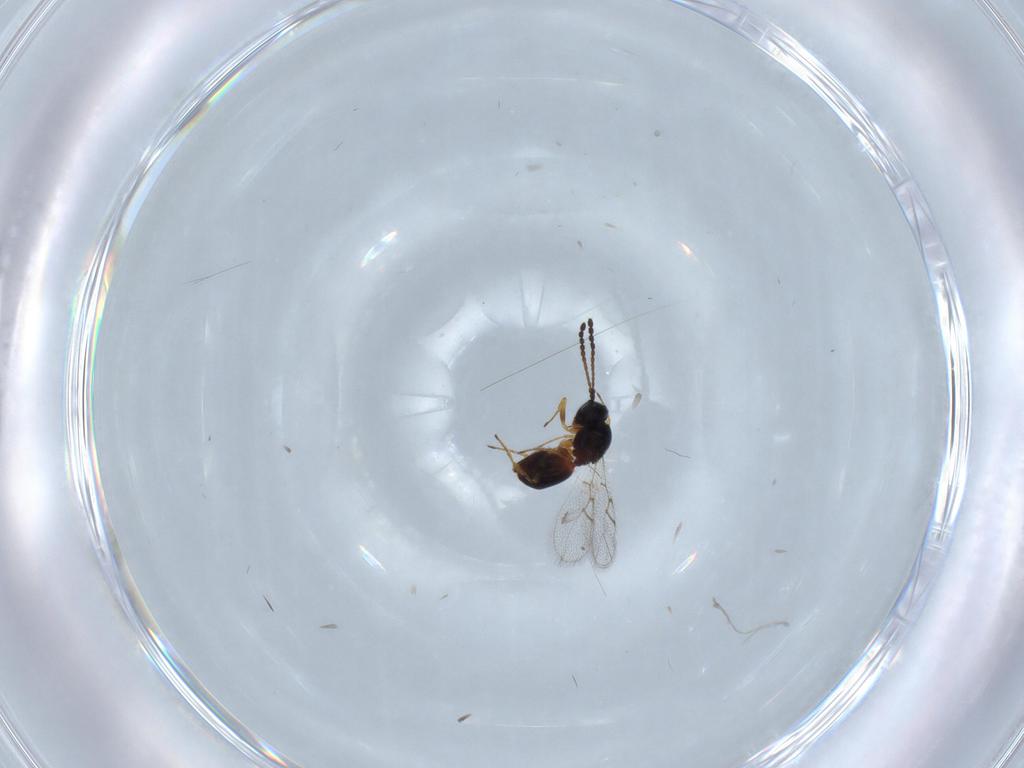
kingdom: Animalia
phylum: Arthropoda
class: Insecta
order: Hymenoptera
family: Figitidae
